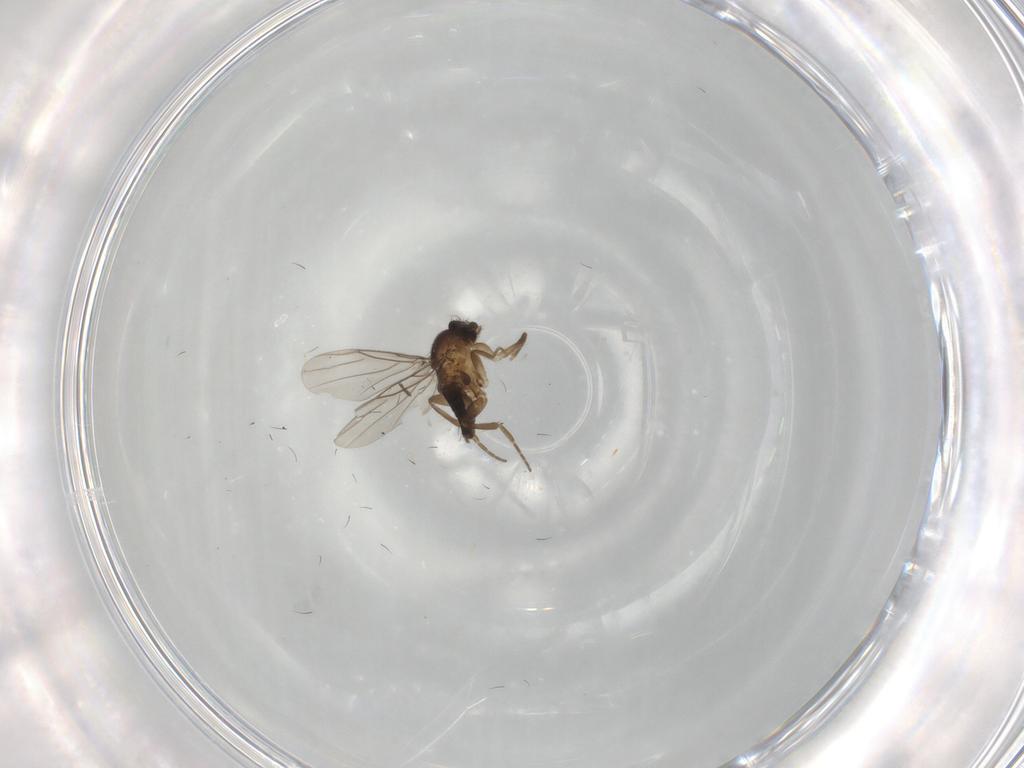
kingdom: Animalia
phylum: Arthropoda
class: Insecta
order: Diptera
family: Phoridae
